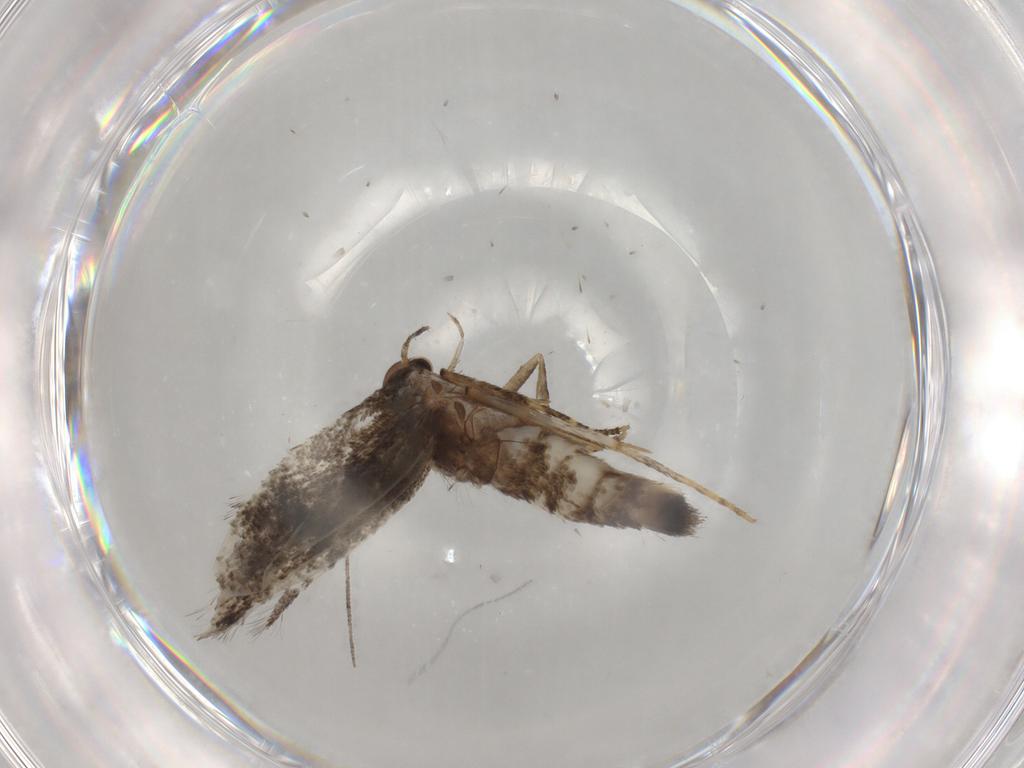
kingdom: Animalia
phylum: Arthropoda
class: Insecta
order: Lepidoptera
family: Elachistidae
